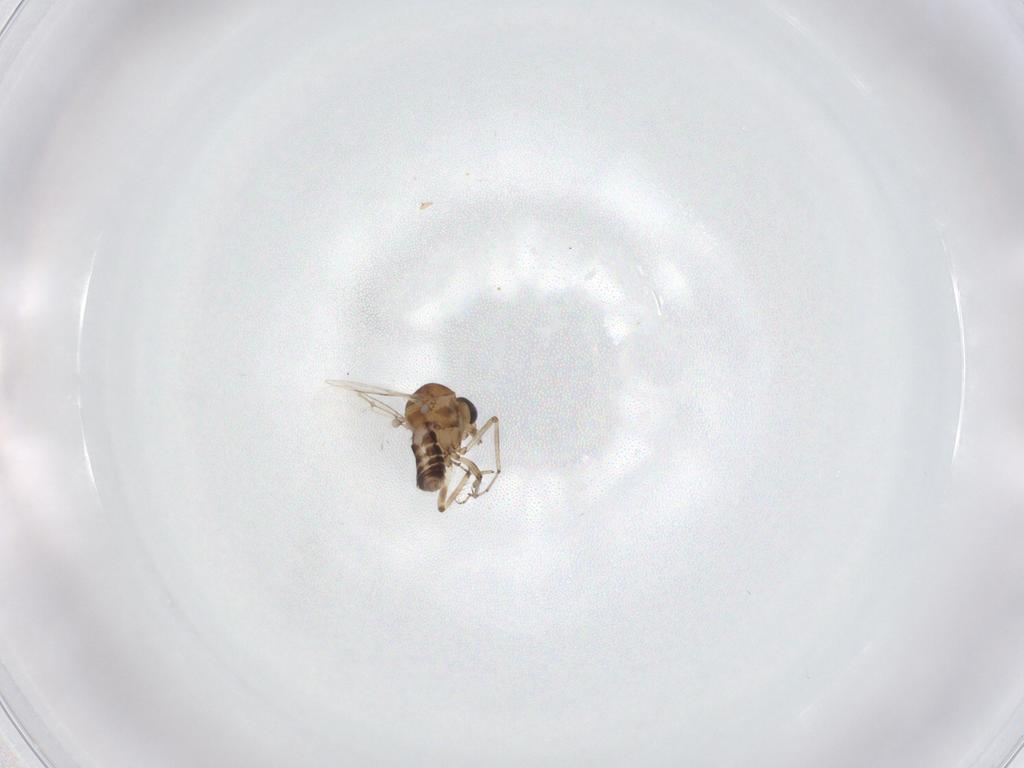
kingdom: Animalia
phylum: Arthropoda
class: Insecta
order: Diptera
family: Ceratopogonidae
